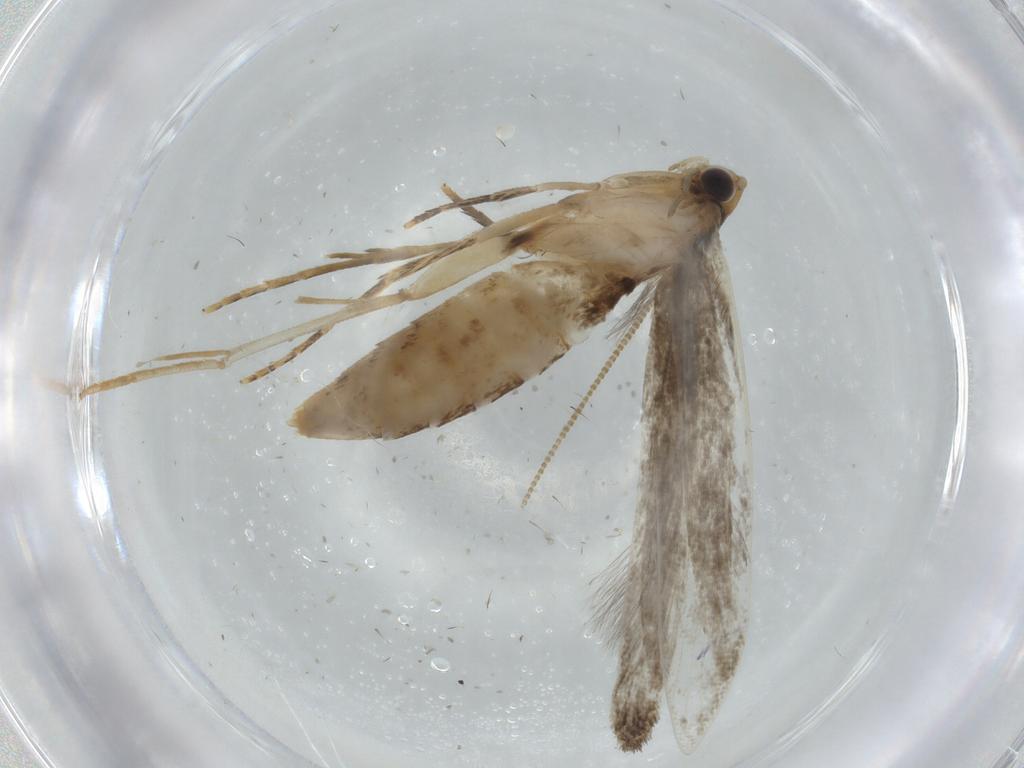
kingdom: Animalia
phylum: Arthropoda
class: Insecta
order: Lepidoptera
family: Tineidae
